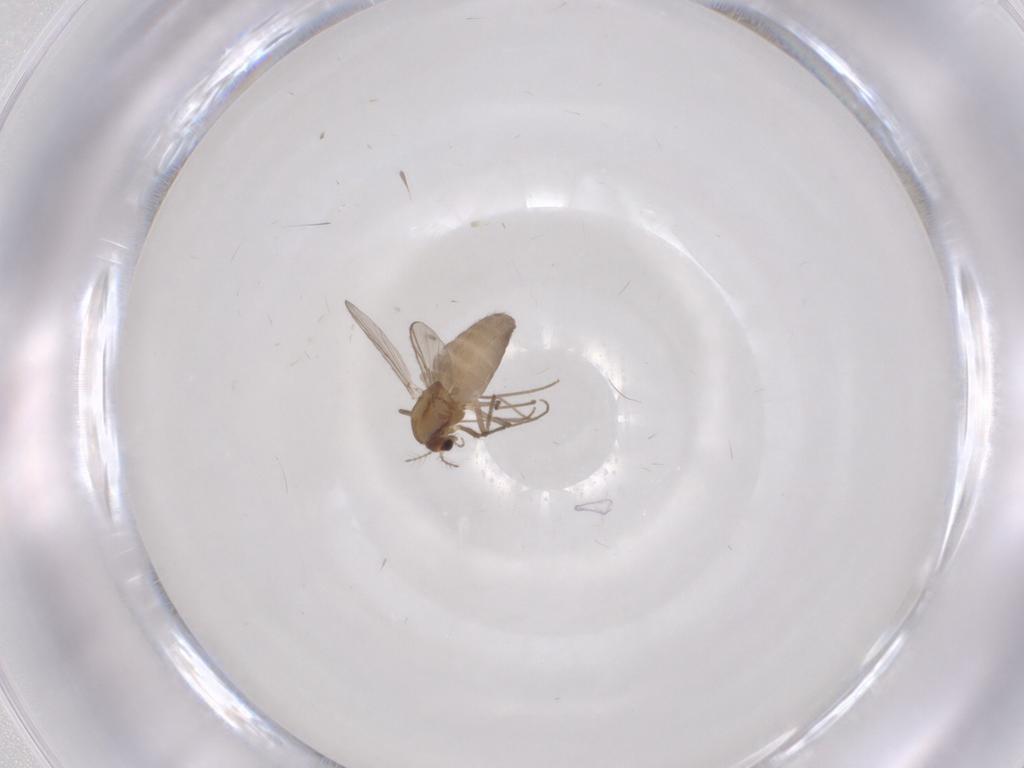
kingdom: Animalia
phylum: Arthropoda
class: Insecta
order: Diptera
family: Chironomidae
